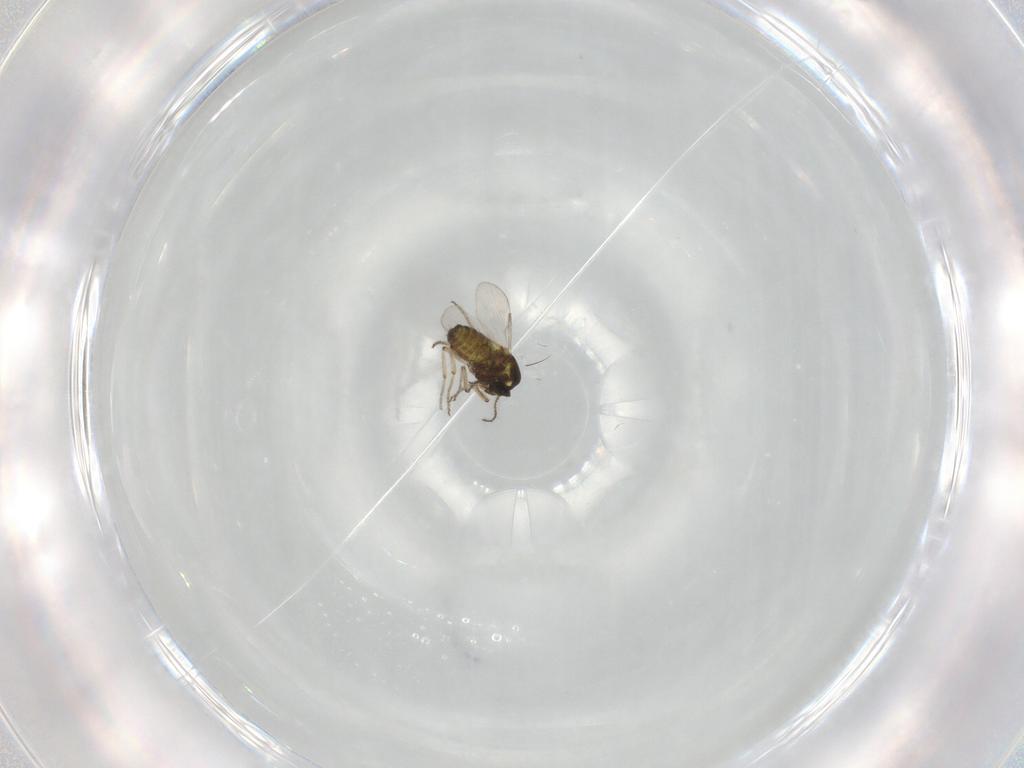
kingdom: Animalia
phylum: Arthropoda
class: Insecta
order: Diptera
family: Ceratopogonidae
